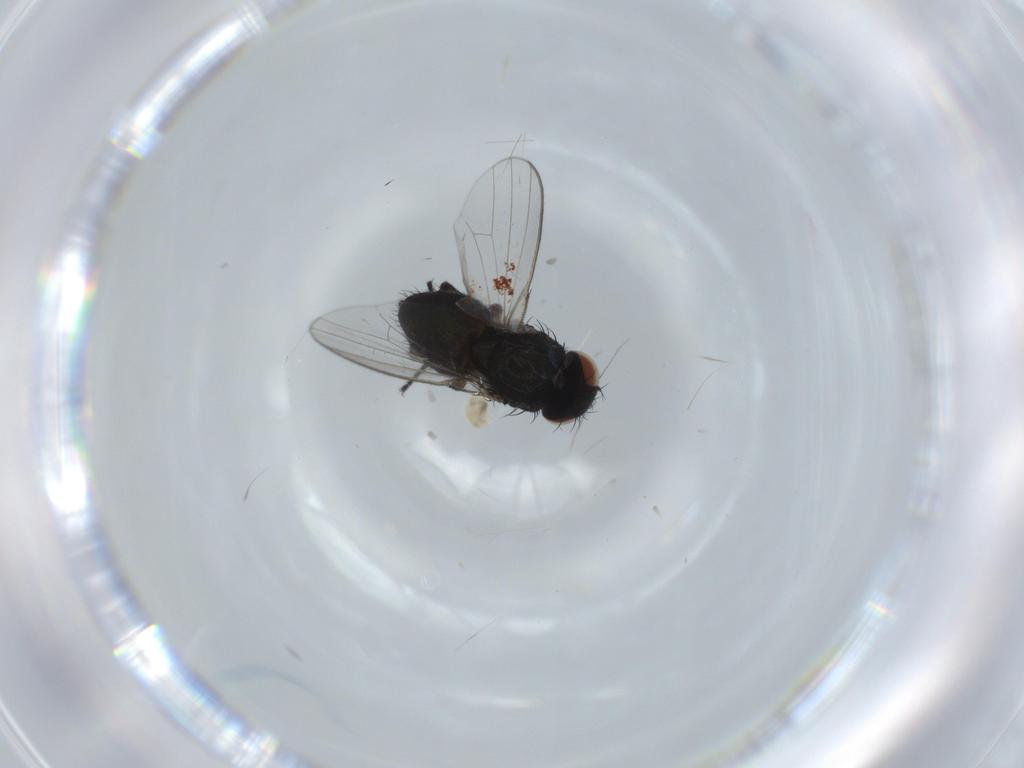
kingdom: Animalia
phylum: Arthropoda
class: Insecta
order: Diptera
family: Milichiidae
